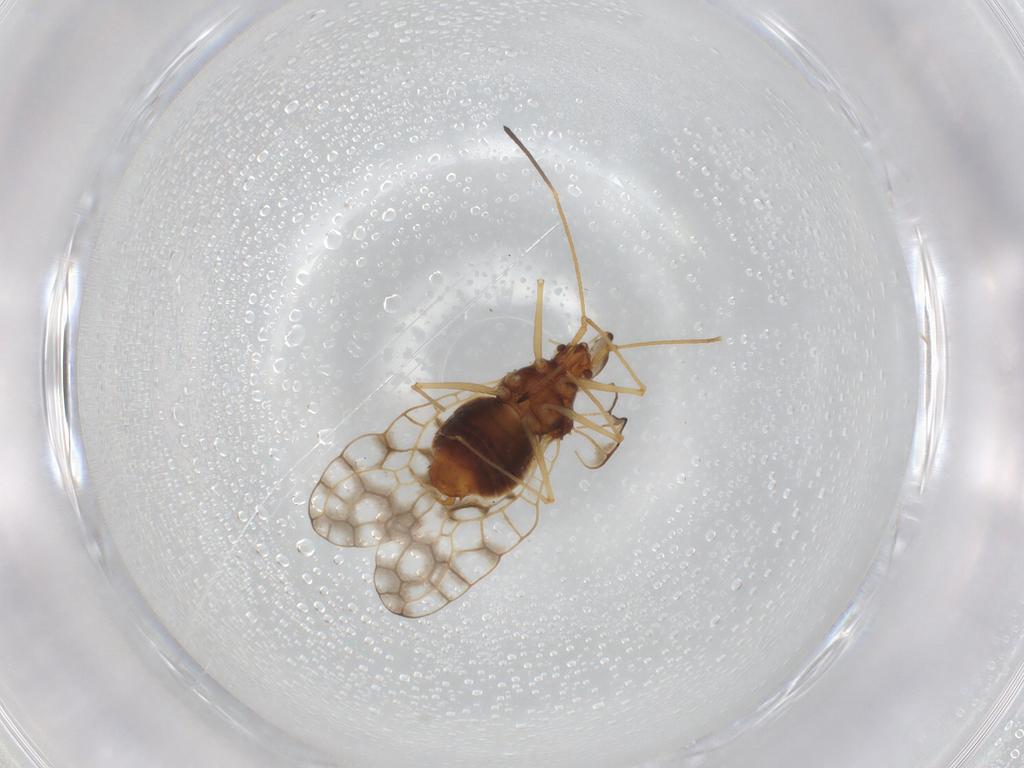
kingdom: Animalia
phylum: Arthropoda
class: Insecta
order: Hemiptera
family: Tingidae
